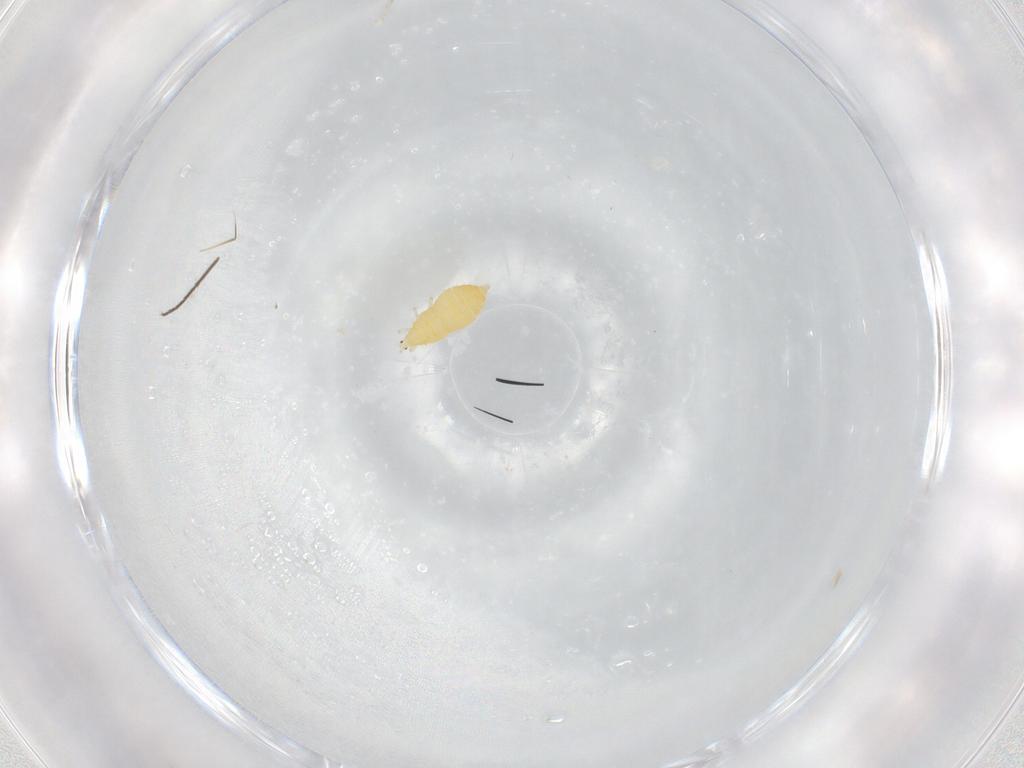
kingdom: Animalia
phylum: Arthropoda
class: Insecta
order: Thysanoptera
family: Thripidae
